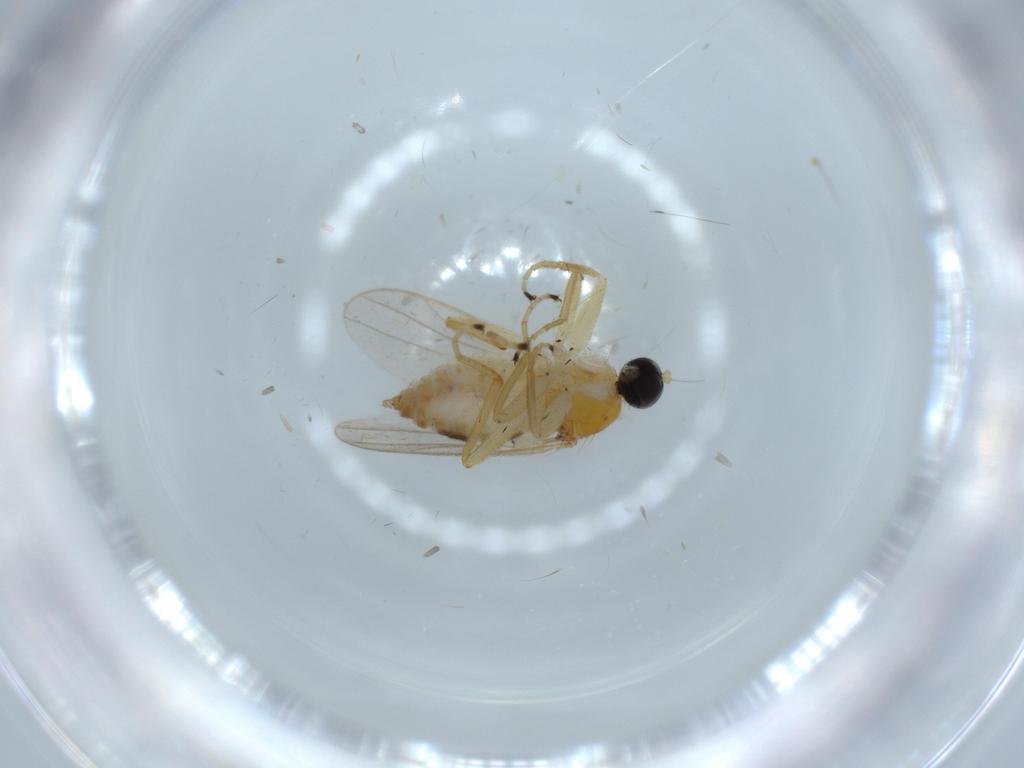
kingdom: Animalia
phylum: Arthropoda
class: Insecta
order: Diptera
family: Hybotidae
